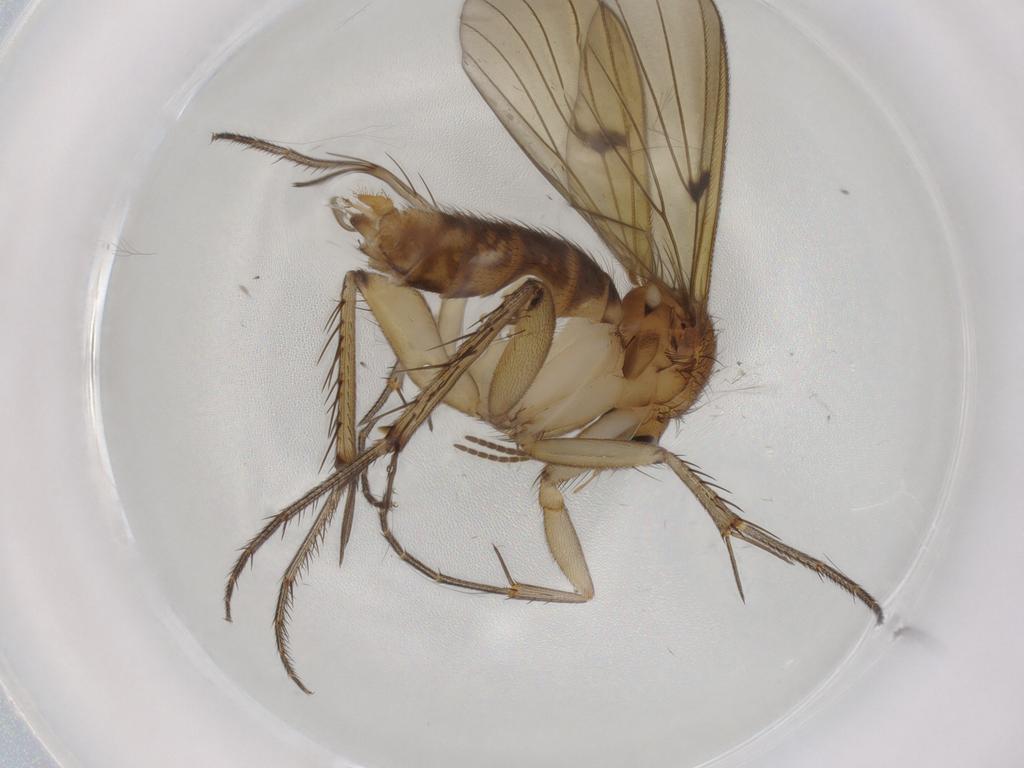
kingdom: Animalia
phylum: Arthropoda
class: Insecta
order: Diptera
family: Mycetophilidae
